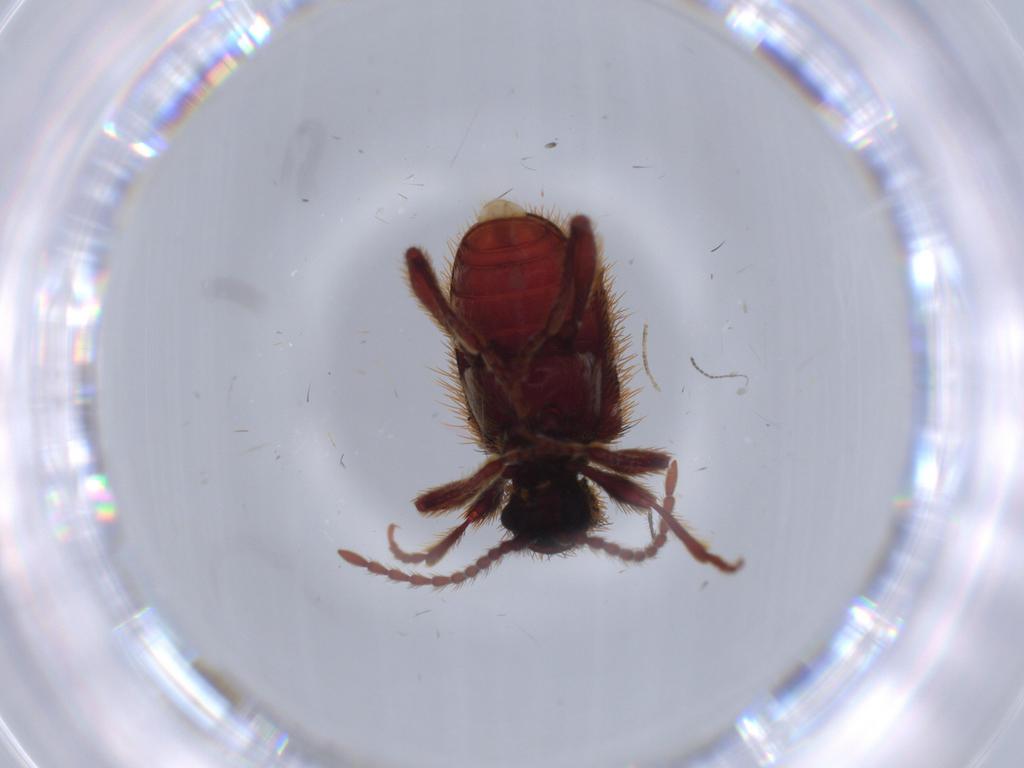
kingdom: Animalia
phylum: Arthropoda
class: Insecta
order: Coleoptera
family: Ptinidae
